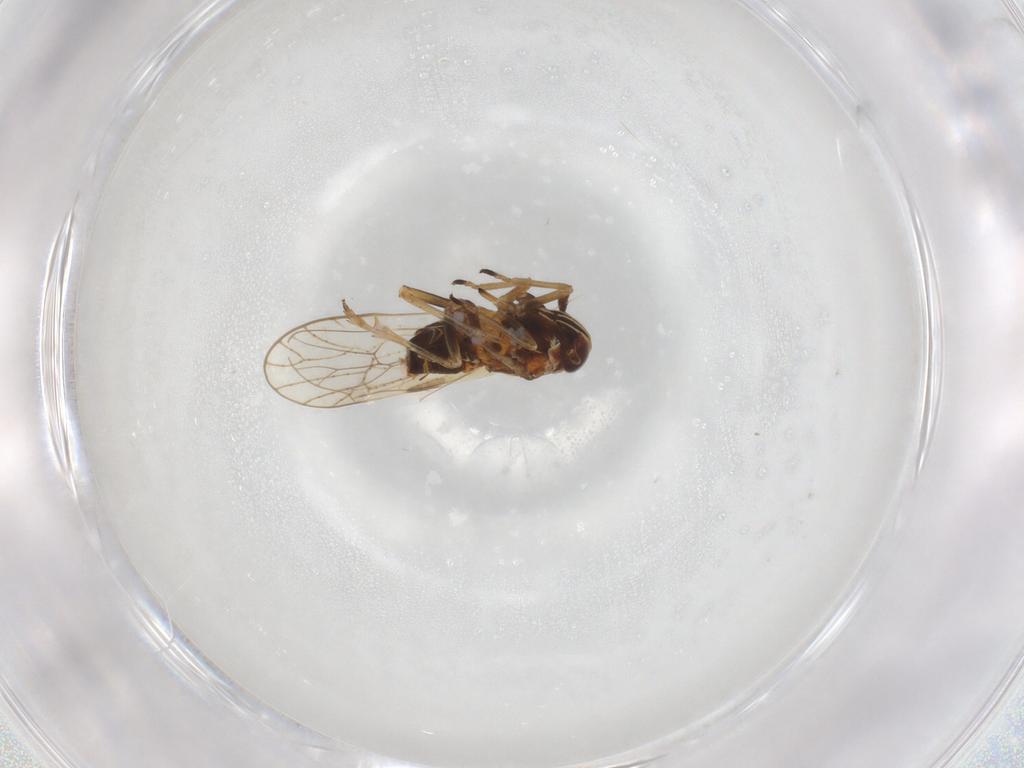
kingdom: Animalia
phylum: Arthropoda
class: Insecta
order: Hemiptera
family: Delphacidae
